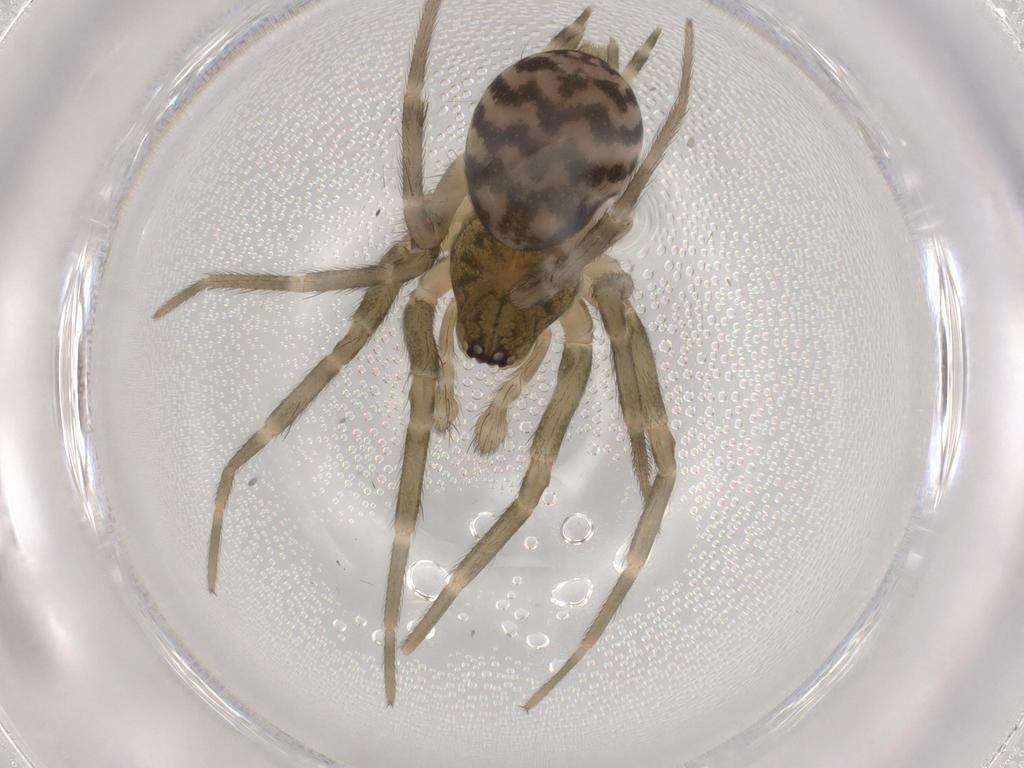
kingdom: Animalia
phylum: Arthropoda
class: Arachnida
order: Araneae
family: Hahniidae
